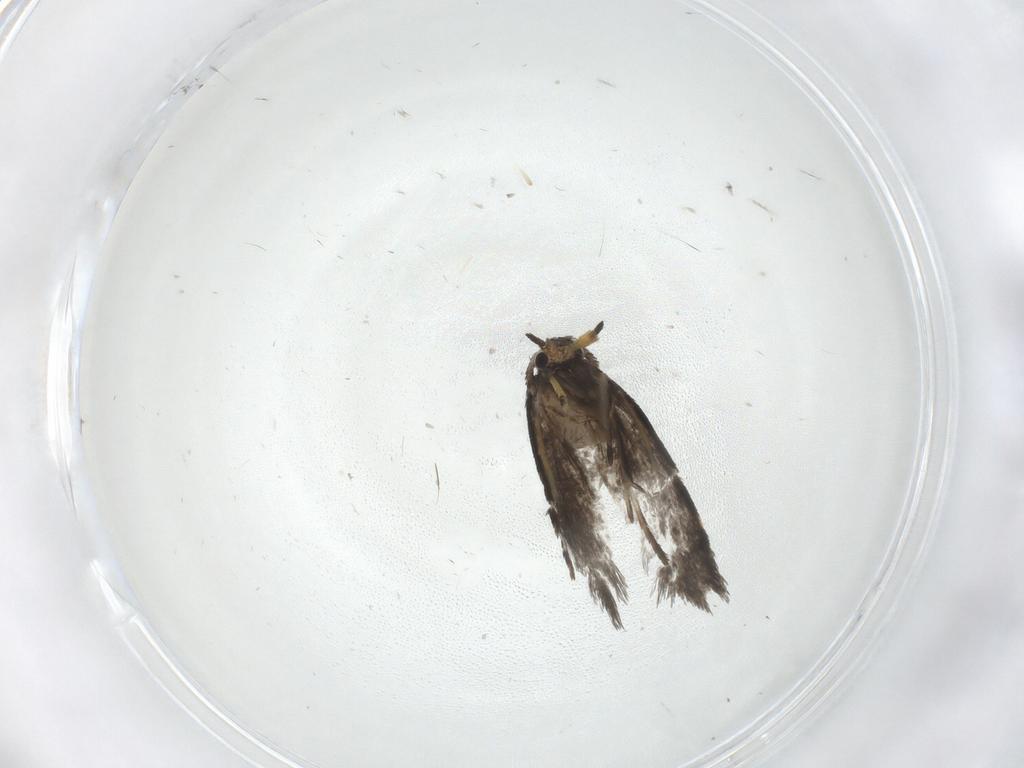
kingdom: Animalia
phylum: Arthropoda
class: Insecta
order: Lepidoptera
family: Psychidae
